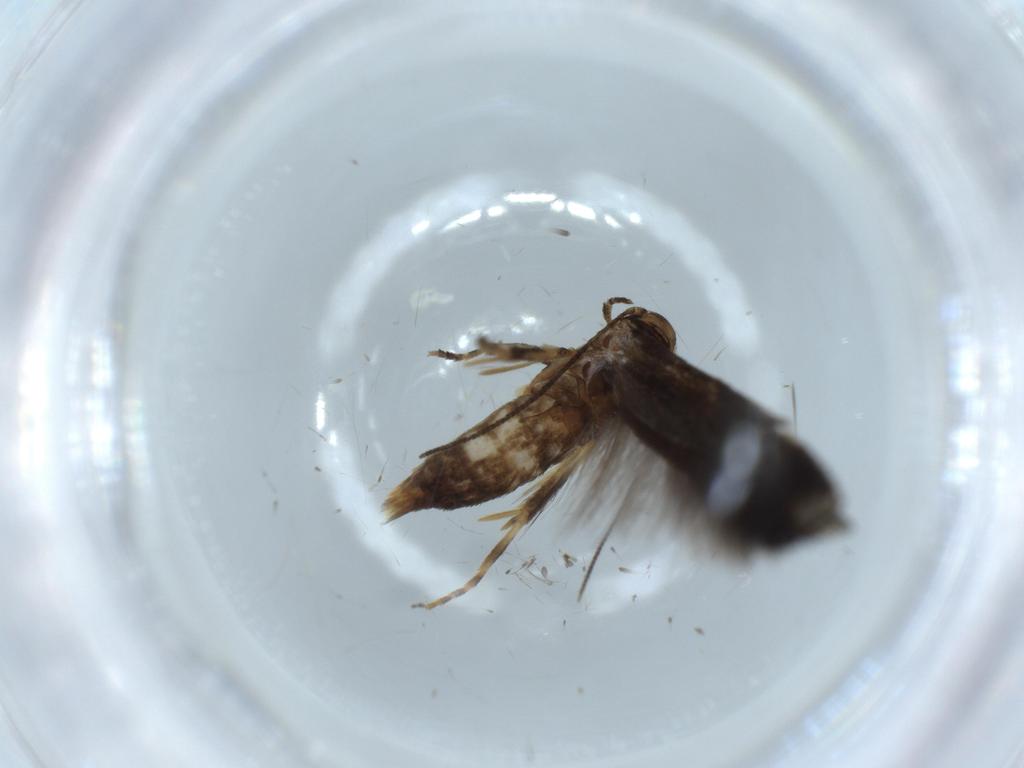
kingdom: Animalia
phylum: Arthropoda
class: Insecta
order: Lepidoptera
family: Elachistidae
